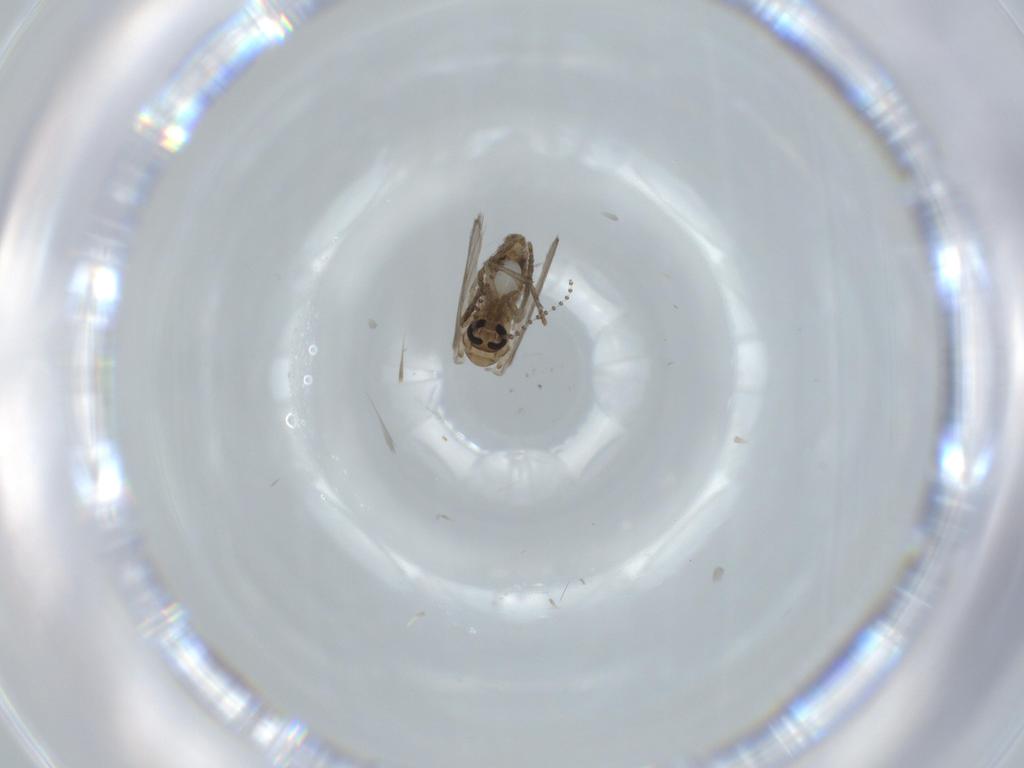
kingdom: Animalia
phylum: Arthropoda
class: Insecta
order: Diptera
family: Psychodidae
